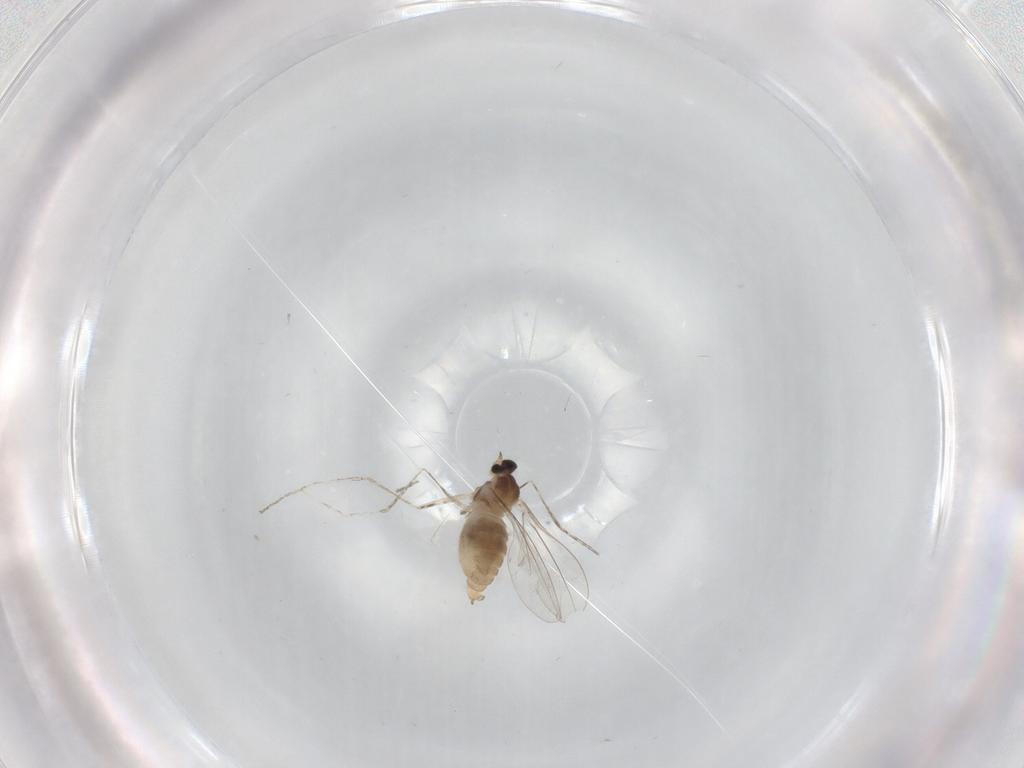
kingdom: Animalia
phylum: Arthropoda
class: Insecta
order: Diptera
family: Cecidomyiidae
